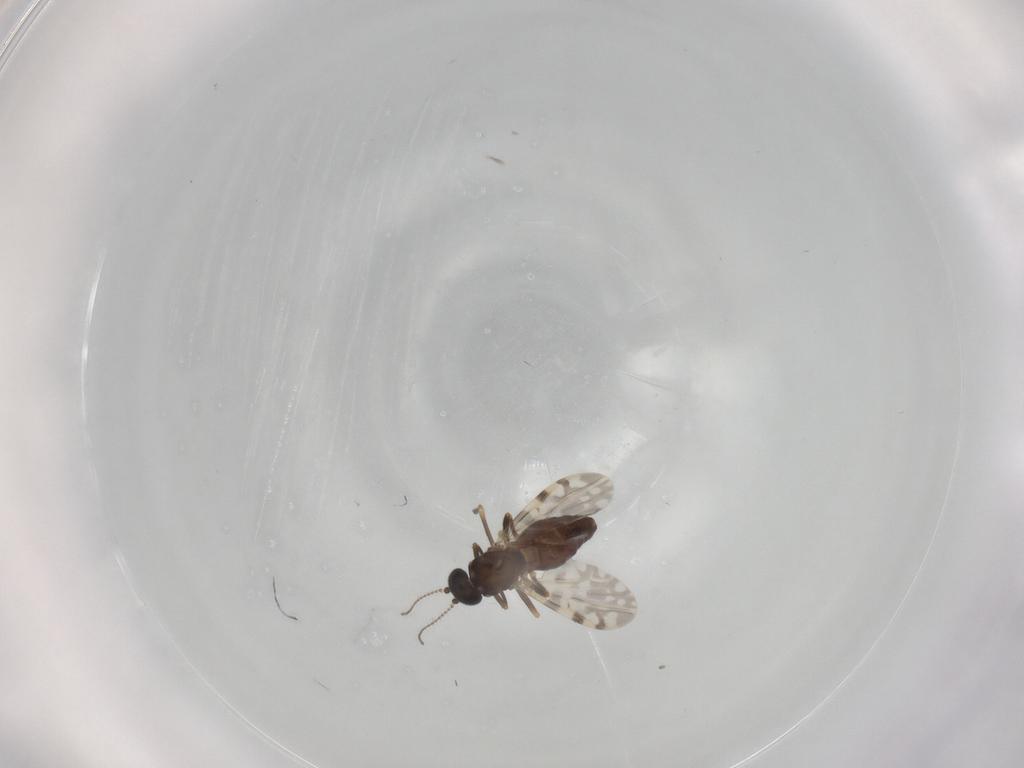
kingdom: Animalia
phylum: Arthropoda
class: Insecta
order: Diptera
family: Ceratopogonidae
